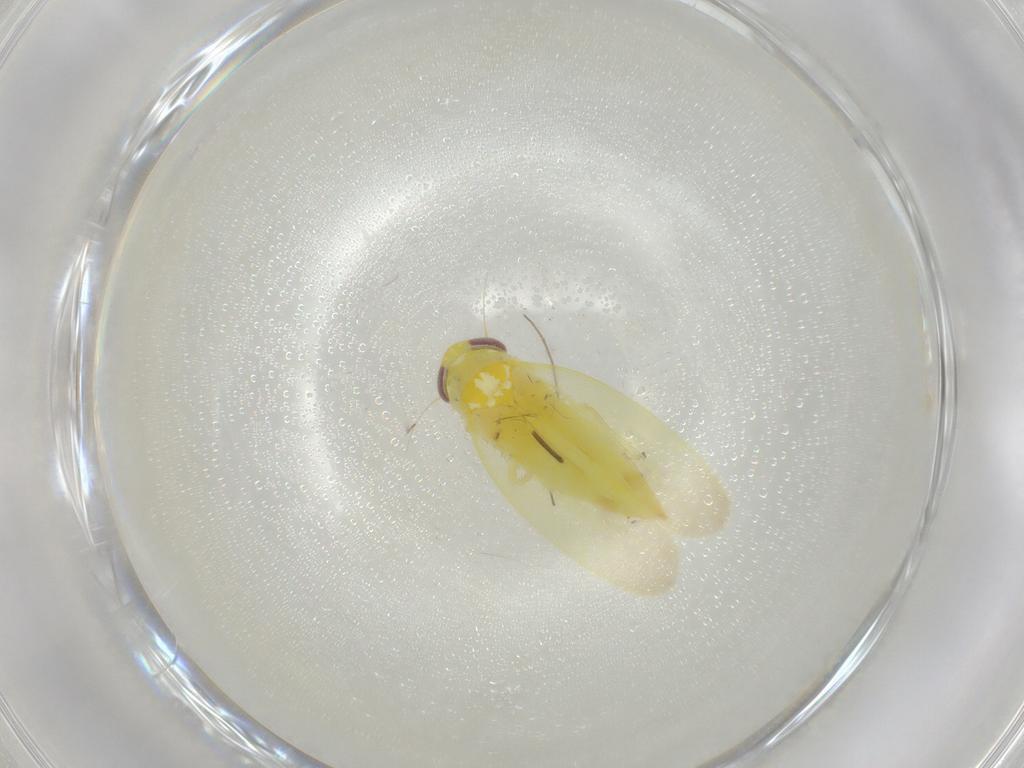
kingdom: Animalia
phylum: Arthropoda
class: Insecta
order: Hemiptera
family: Cicadellidae
